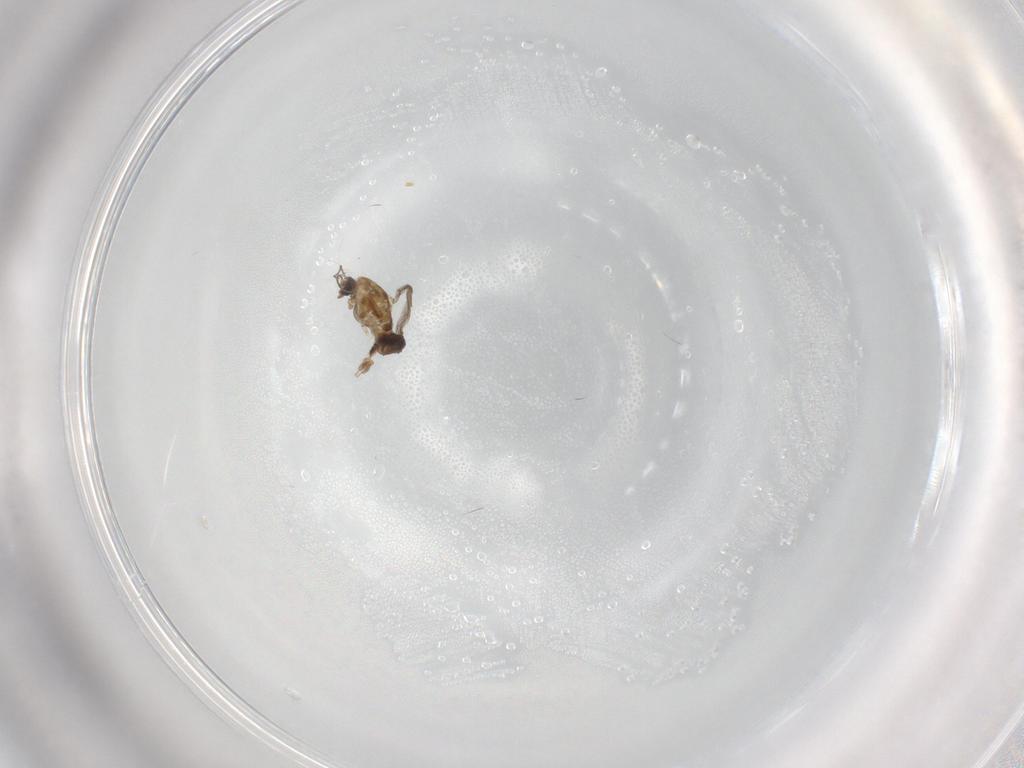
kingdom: Animalia
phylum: Arthropoda
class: Insecta
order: Diptera
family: Chironomidae
